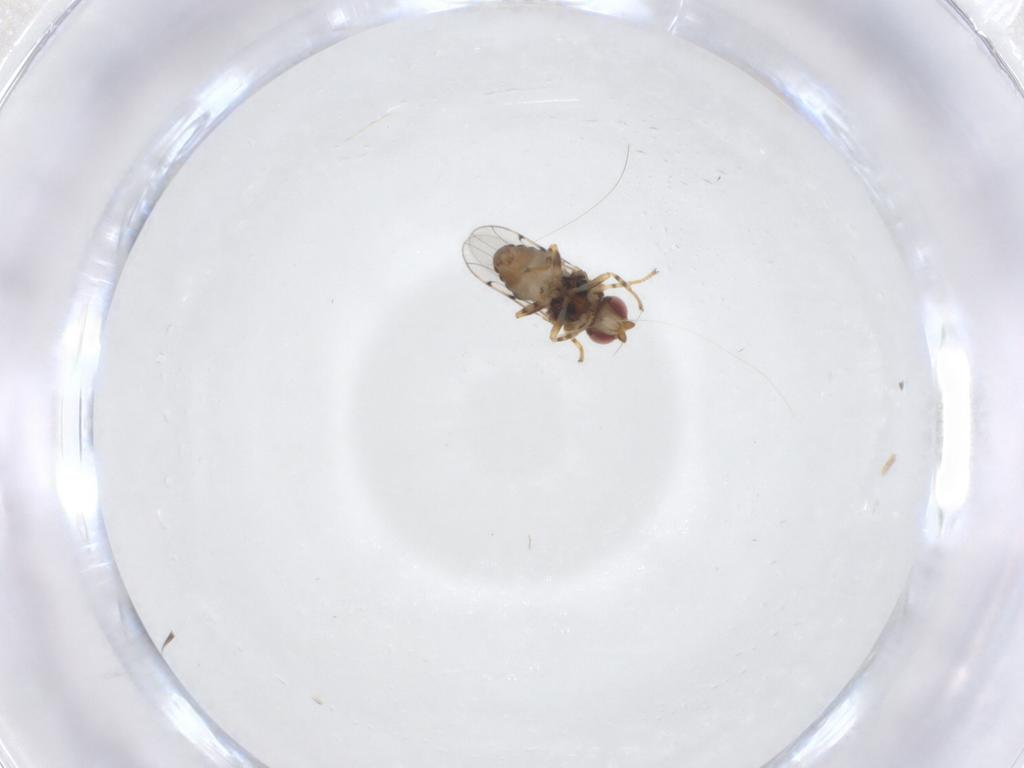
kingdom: Animalia
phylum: Arthropoda
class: Insecta
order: Diptera
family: Chloropidae
